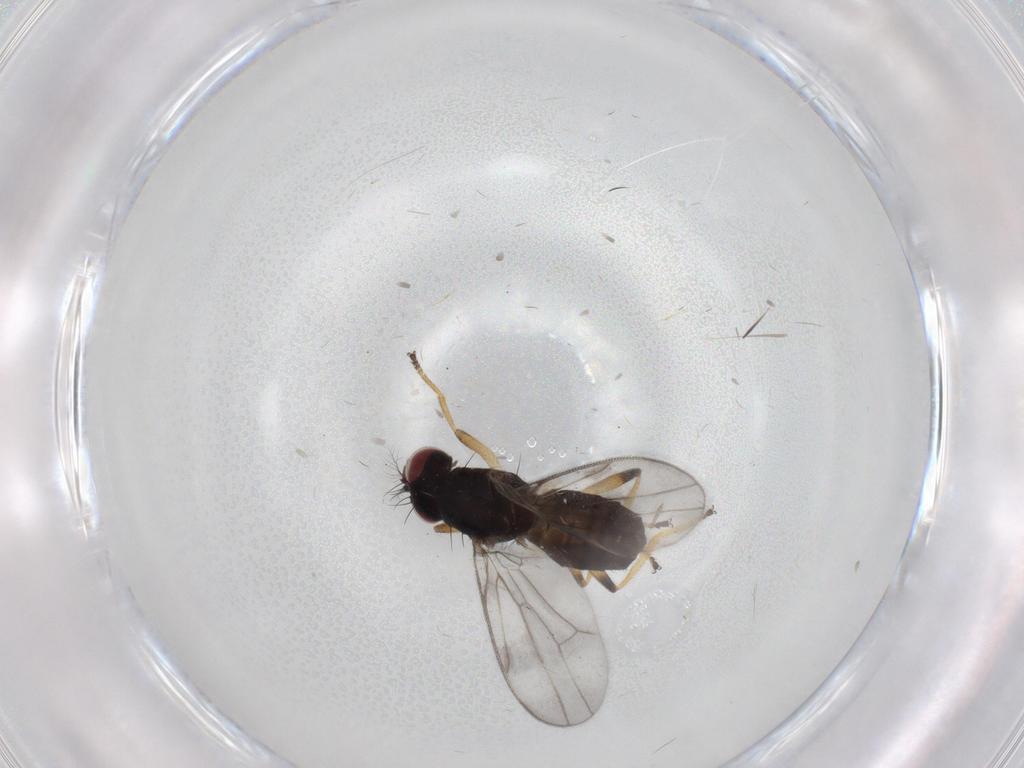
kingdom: Animalia
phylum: Arthropoda
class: Insecta
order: Diptera
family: Periscelididae
